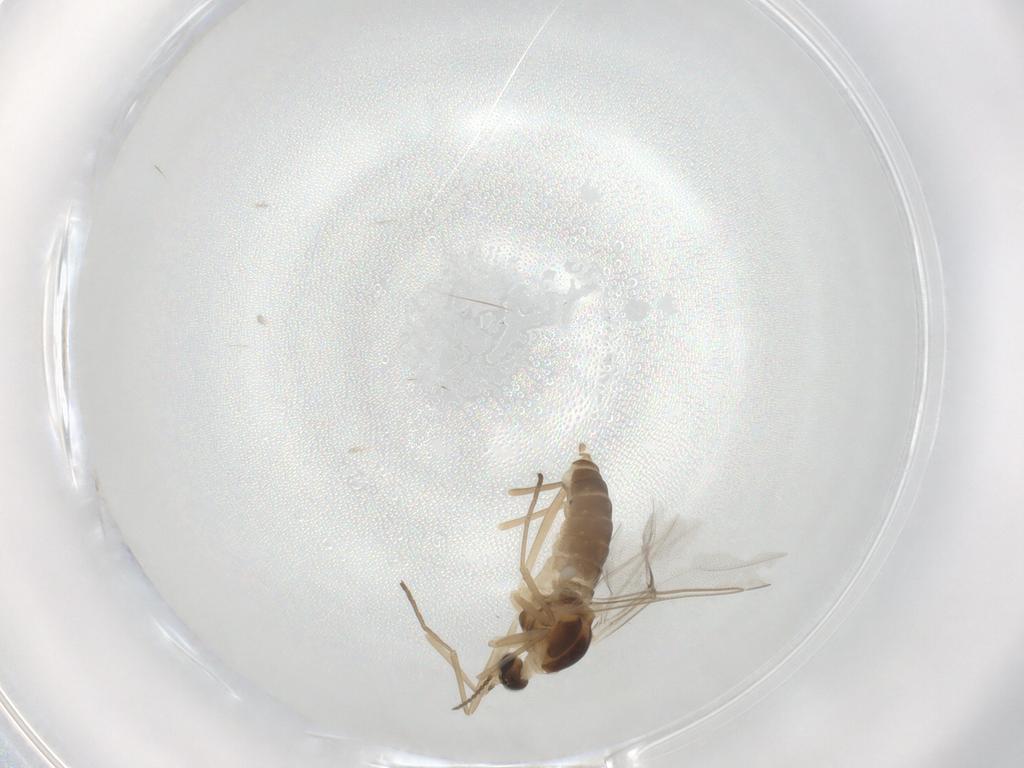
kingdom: Animalia
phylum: Arthropoda
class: Insecta
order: Diptera
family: Cecidomyiidae
